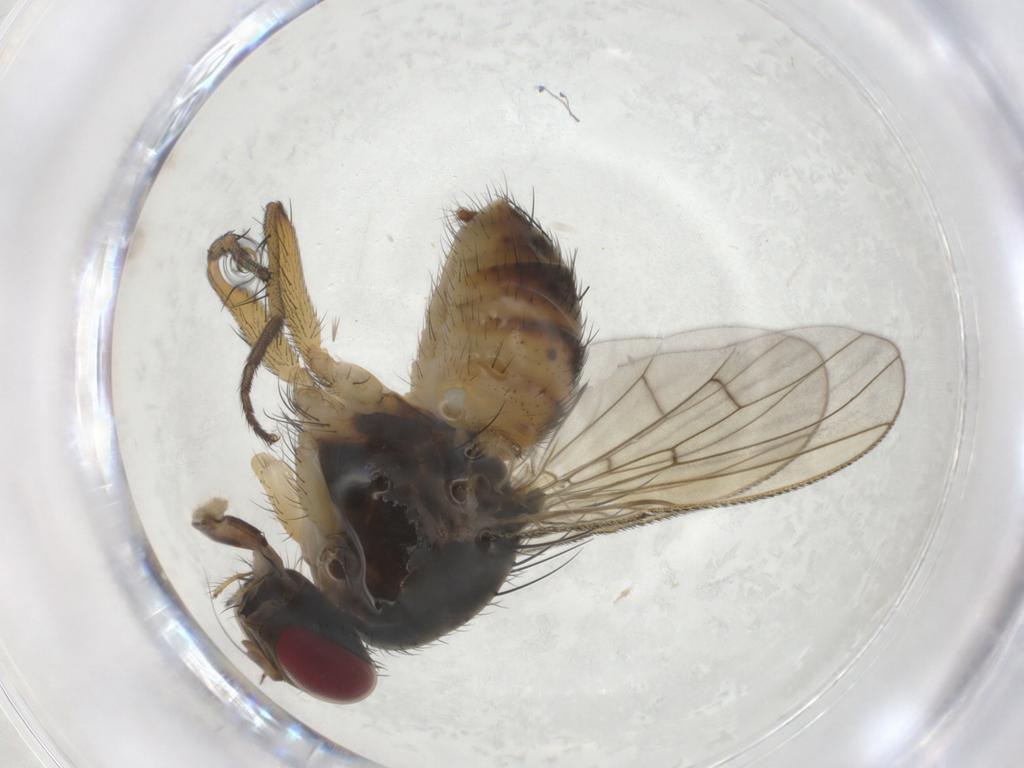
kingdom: Animalia
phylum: Arthropoda
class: Insecta
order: Diptera
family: Muscidae
